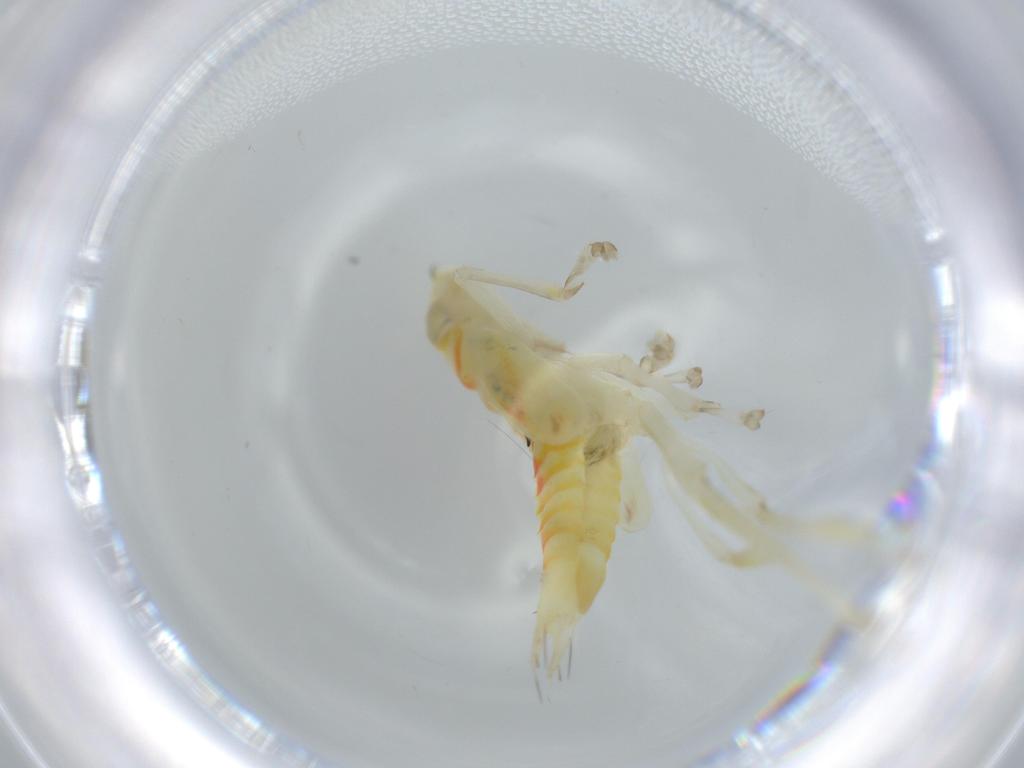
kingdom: Animalia
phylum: Arthropoda
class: Insecta
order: Hemiptera
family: Cicadellidae
